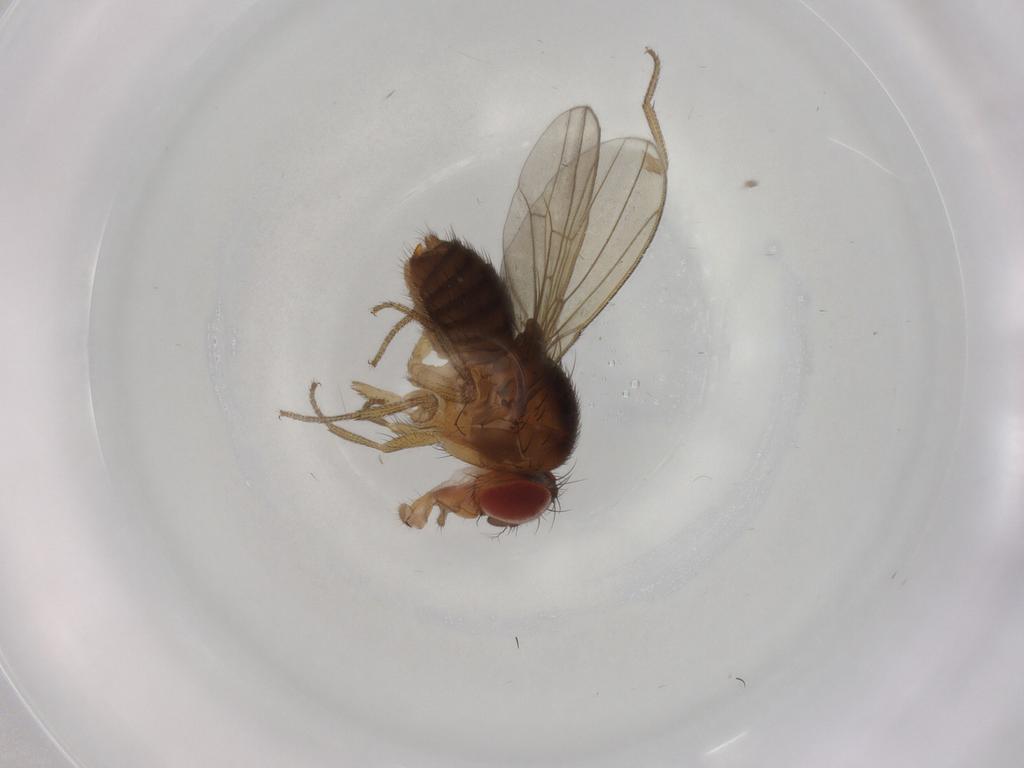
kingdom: Animalia
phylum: Arthropoda
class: Insecta
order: Diptera
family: Drosophilidae
